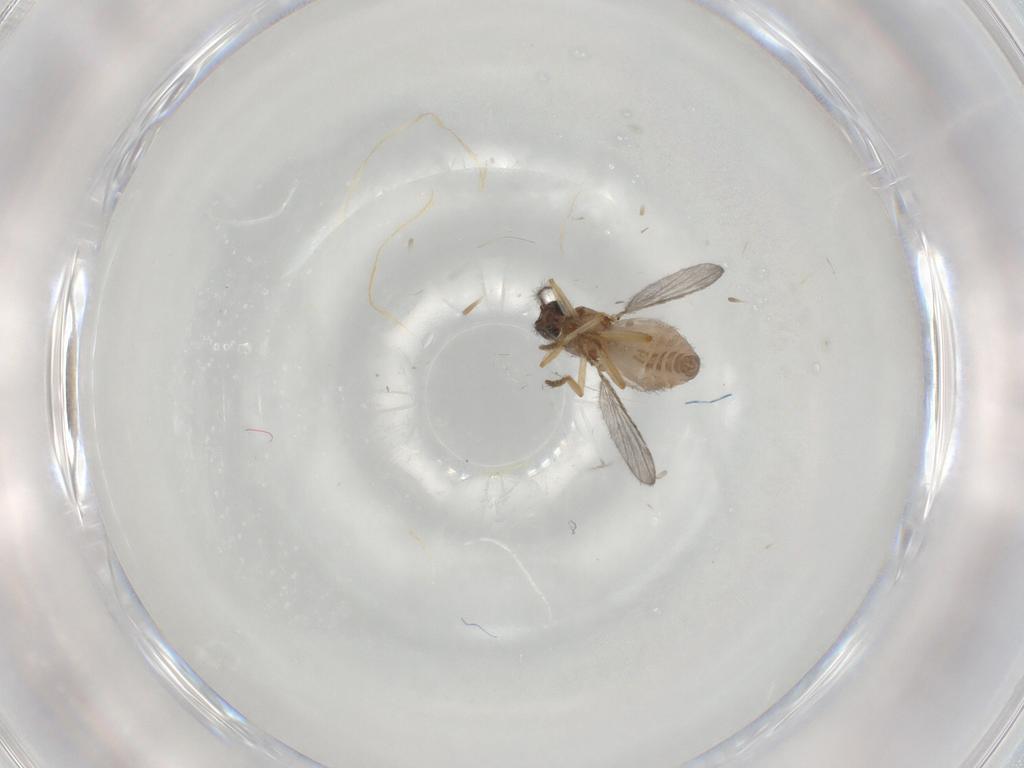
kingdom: Animalia
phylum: Arthropoda
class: Insecta
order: Diptera
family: Ceratopogonidae
